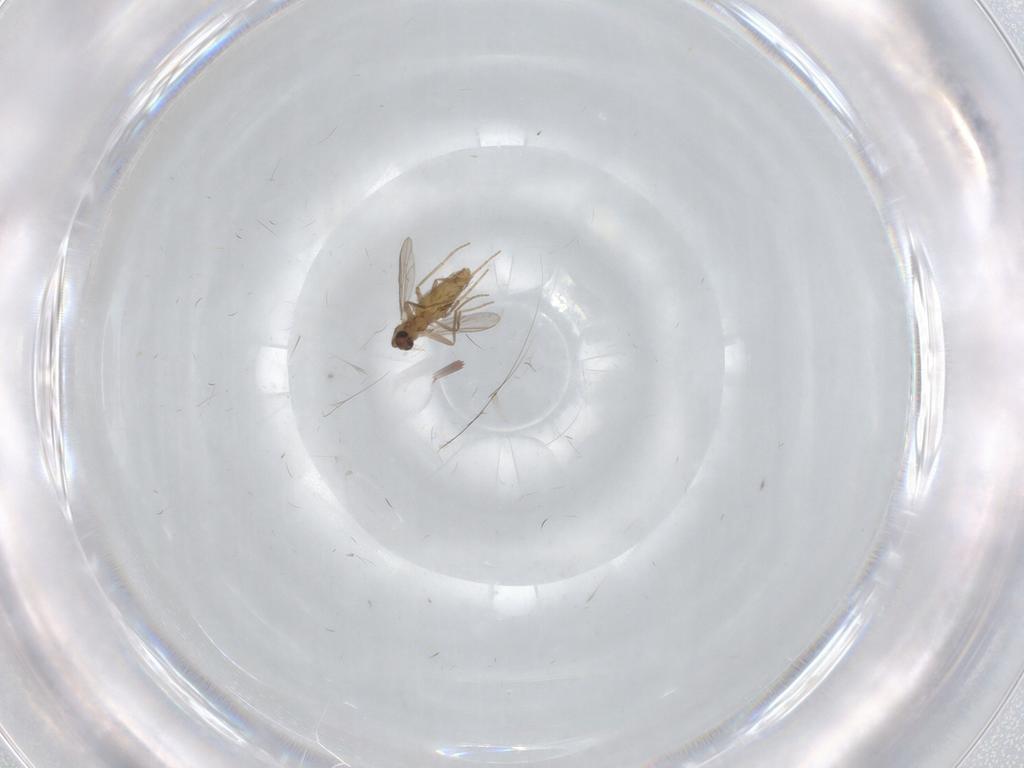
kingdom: Animalia
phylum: Arthropoda
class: Insecta
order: Diptera
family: Chironomidae
